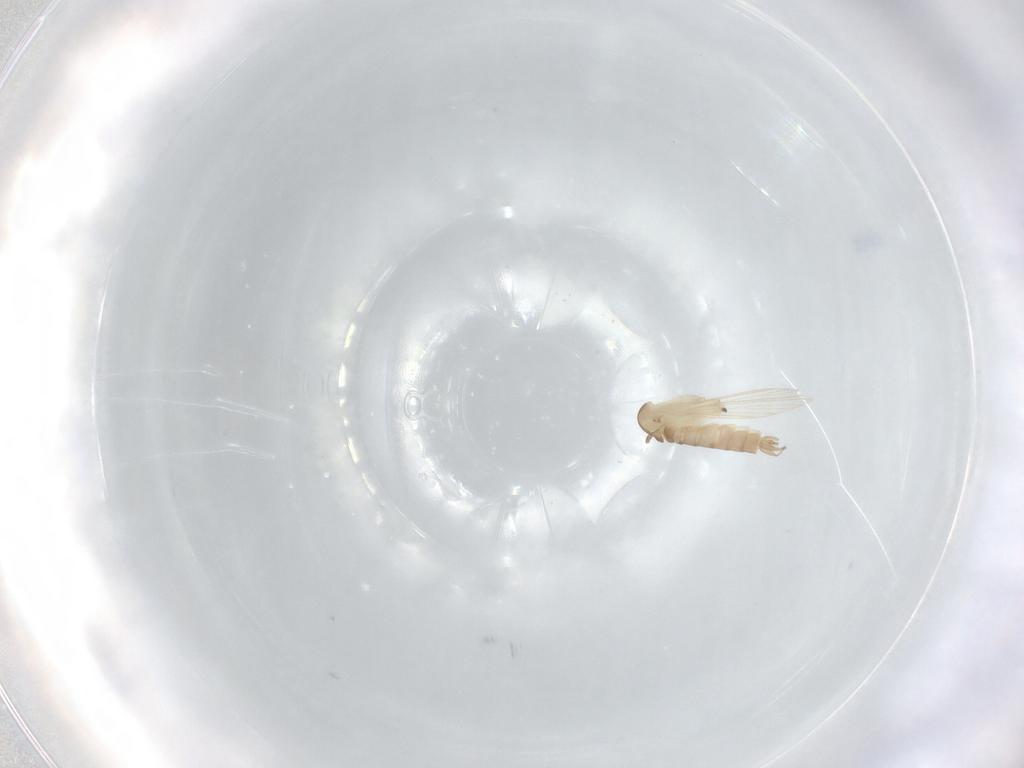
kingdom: Animalia
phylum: Arthropoda
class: Insecta
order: Diptera
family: Psychodidae
